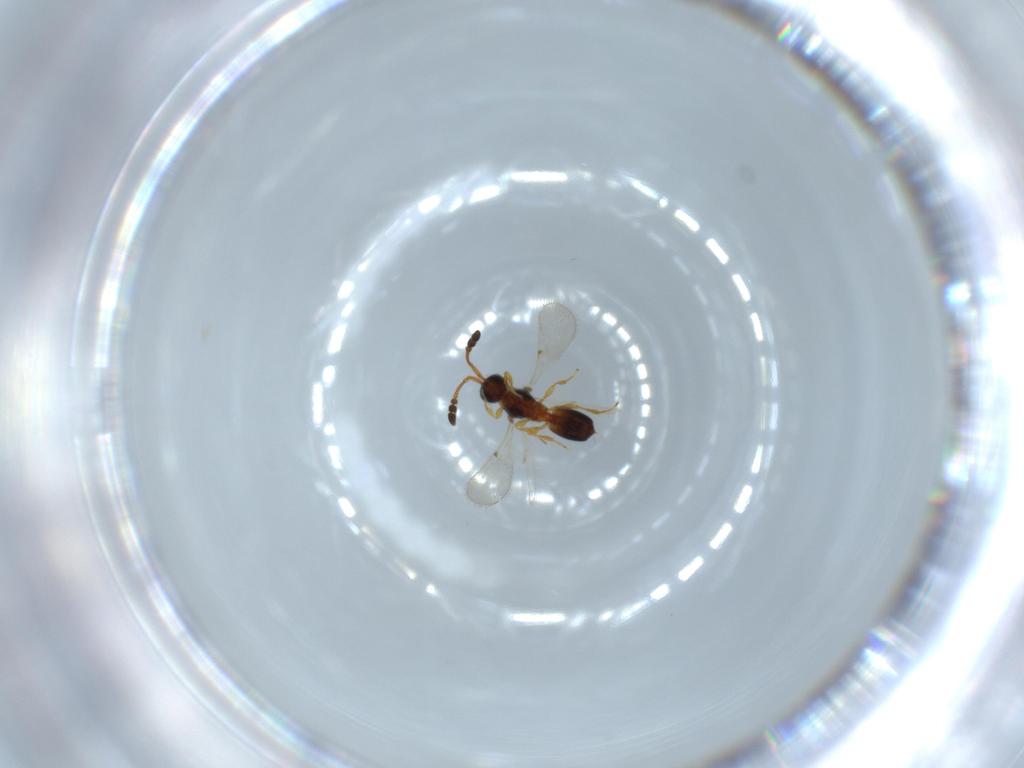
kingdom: Animalia
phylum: Arthropoda
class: Insecta
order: Hymenoptera
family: Diapriidae
